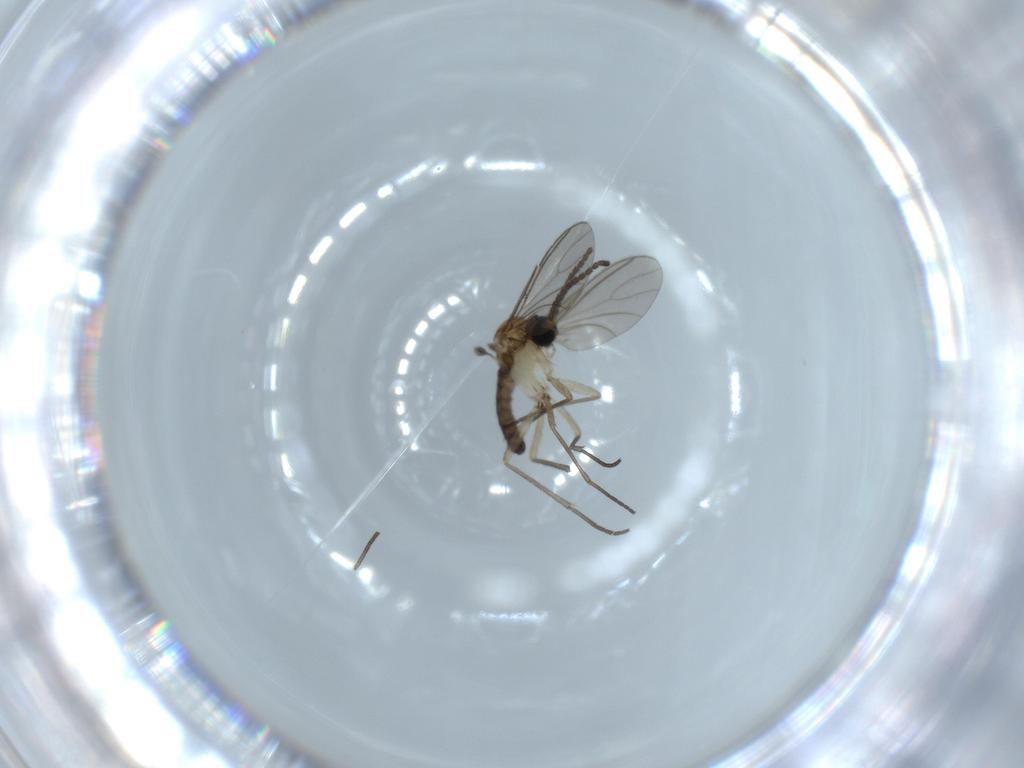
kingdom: Animalia
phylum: Arthropoda
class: Insecta
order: Diptera
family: Sciaridae
